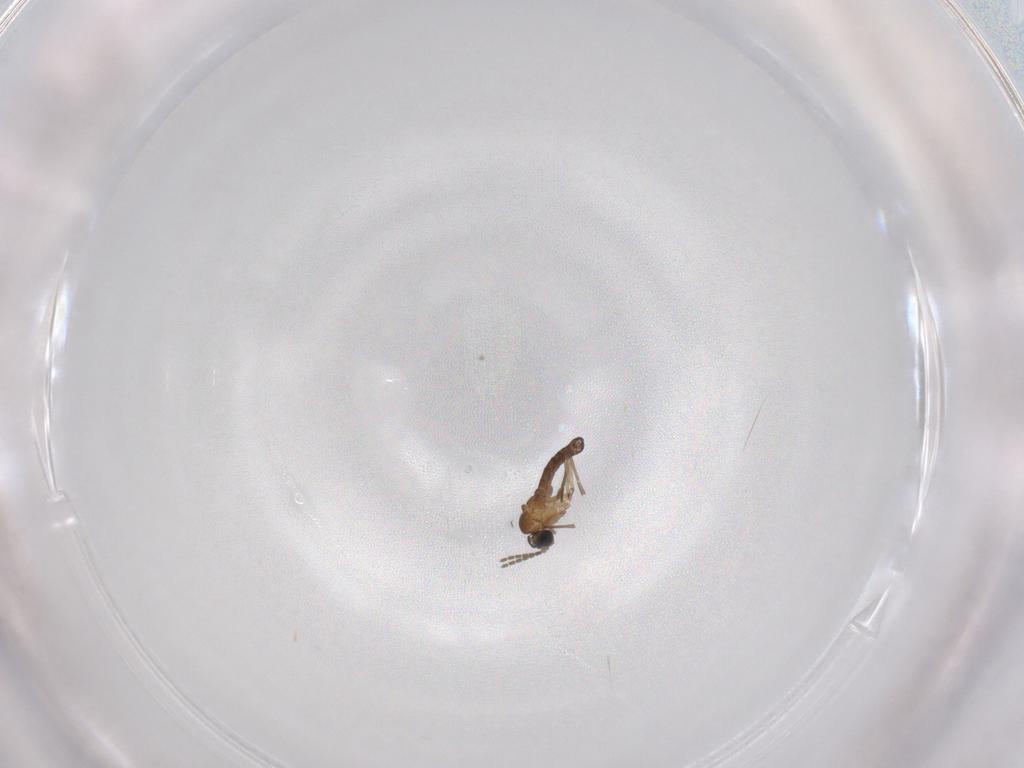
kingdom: Animalia
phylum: Arthropoda
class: Insecta
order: Diptera
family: Sciaridae
